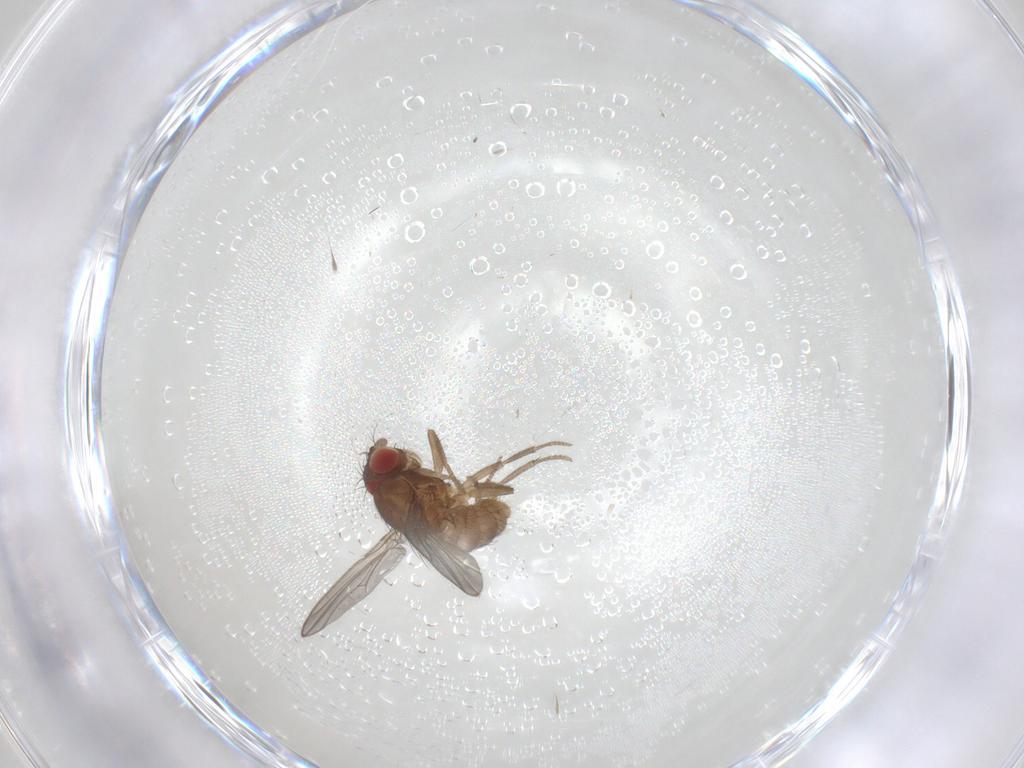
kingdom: Animalia
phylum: Arthropoda
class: Insecta
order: Diptera
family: Drosophilidae
